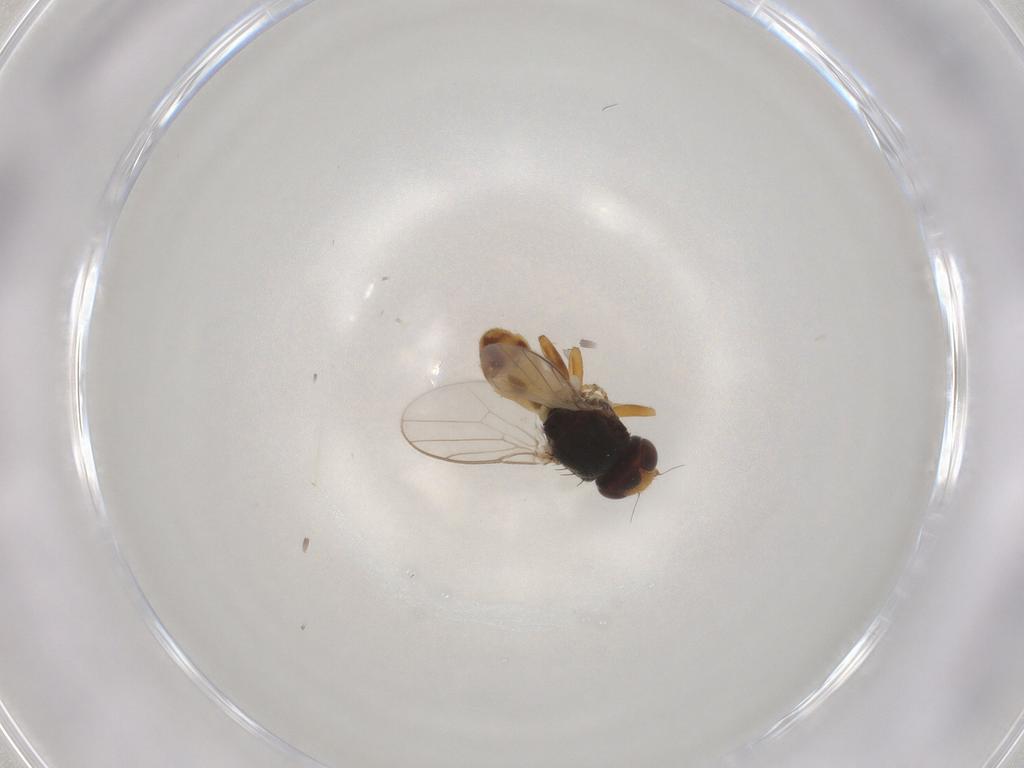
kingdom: Animalia
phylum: Arthropoda
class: Insecta
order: Diptera
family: Chloropidae
